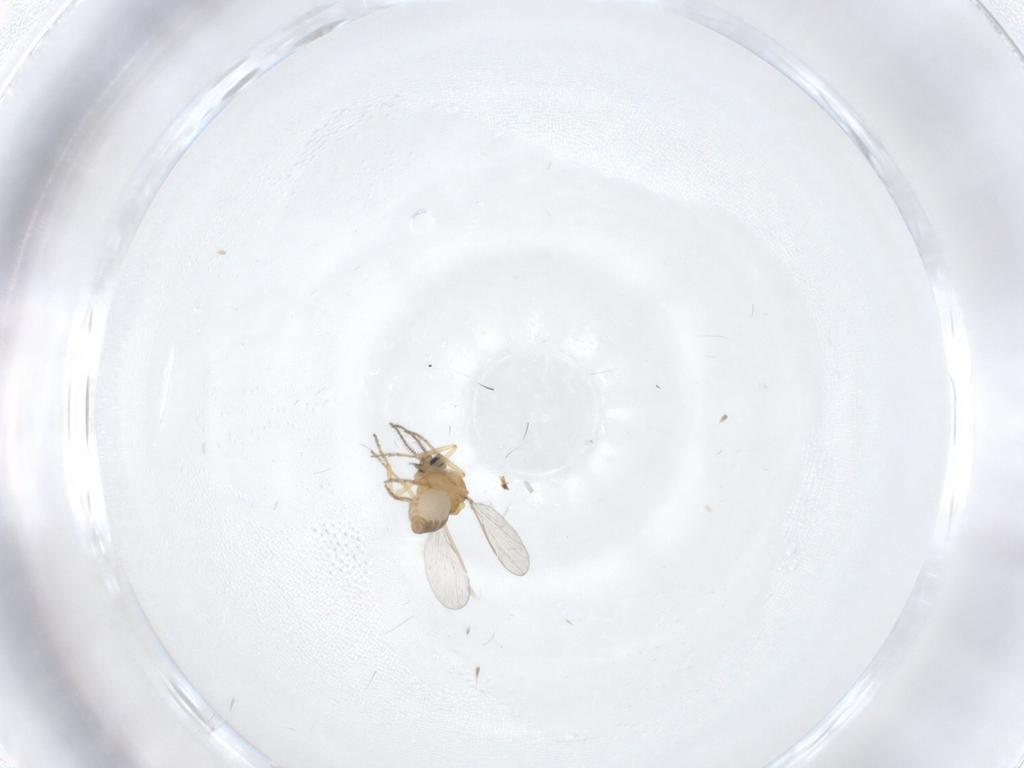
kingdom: Animalia
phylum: Arthropoda
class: Insecta
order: Diptera
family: Ceratopogonidae
